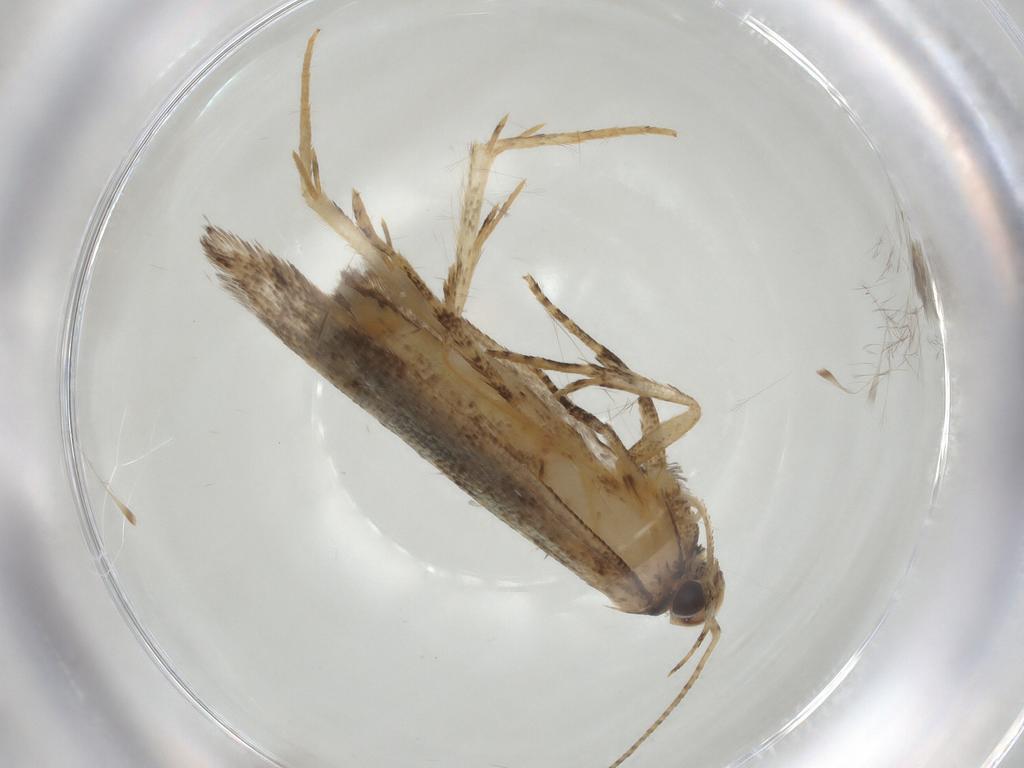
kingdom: Animalia
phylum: Arthropoda
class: Insecta
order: Lepidoptera
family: Plutellidae
